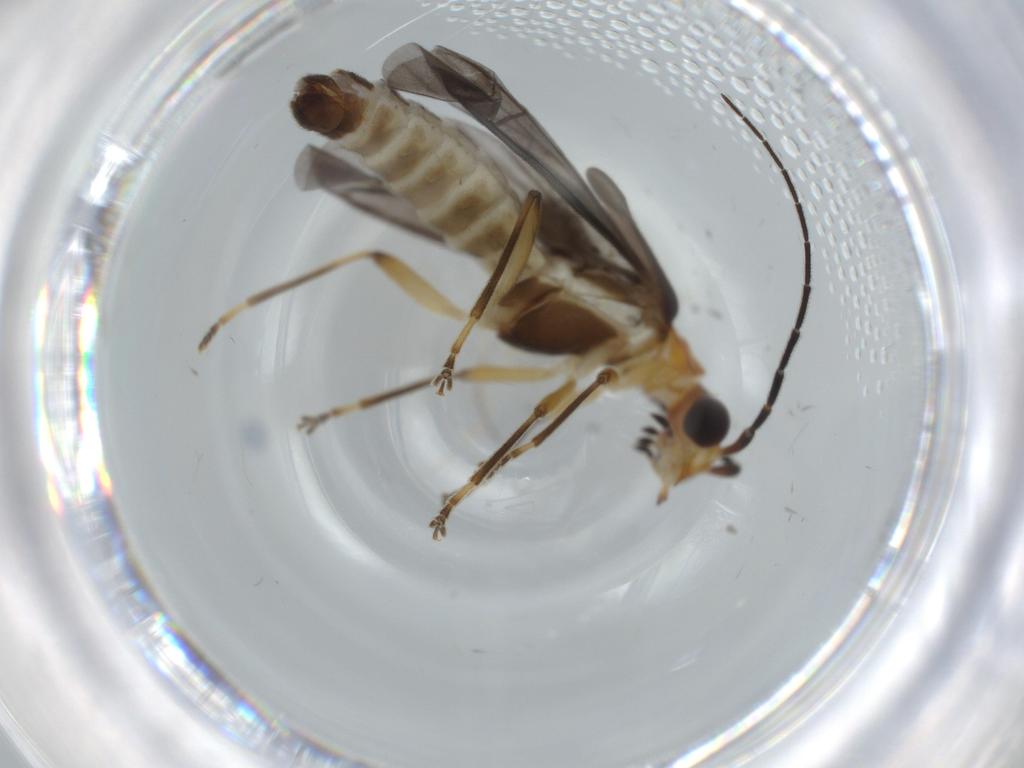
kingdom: Animalia
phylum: Arthropoda
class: Insecta
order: Coleoptera
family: Cantharidae
